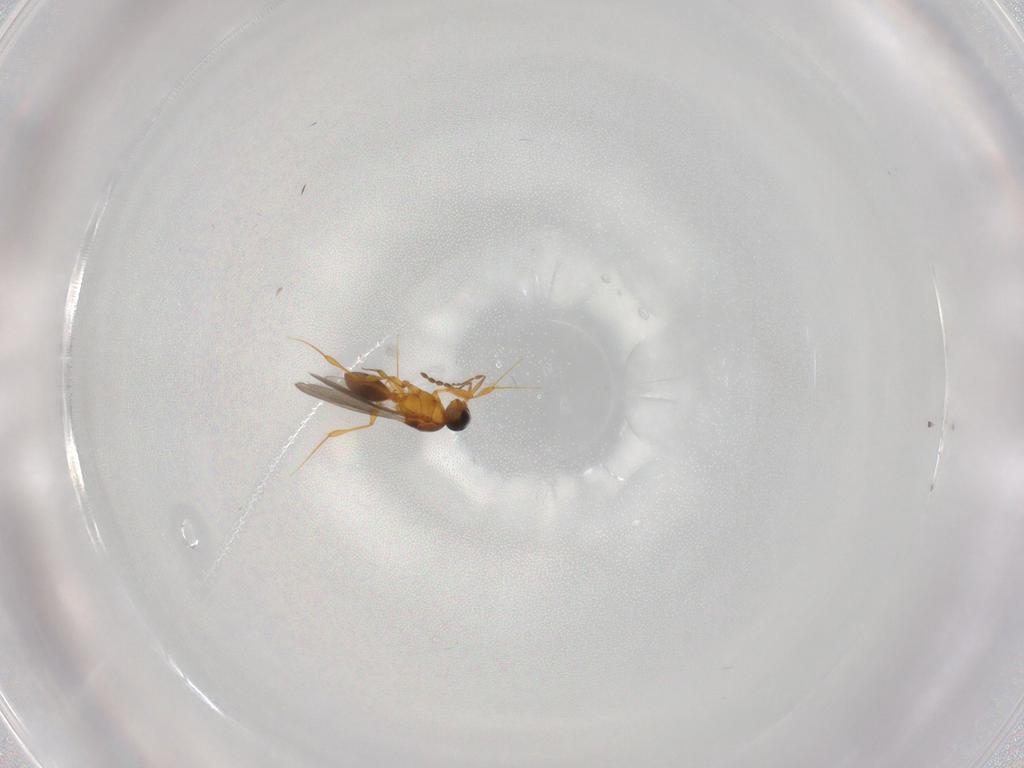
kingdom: Animalia
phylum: Arthropoda
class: Insecta
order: Hymenoptera
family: Platygastridae
